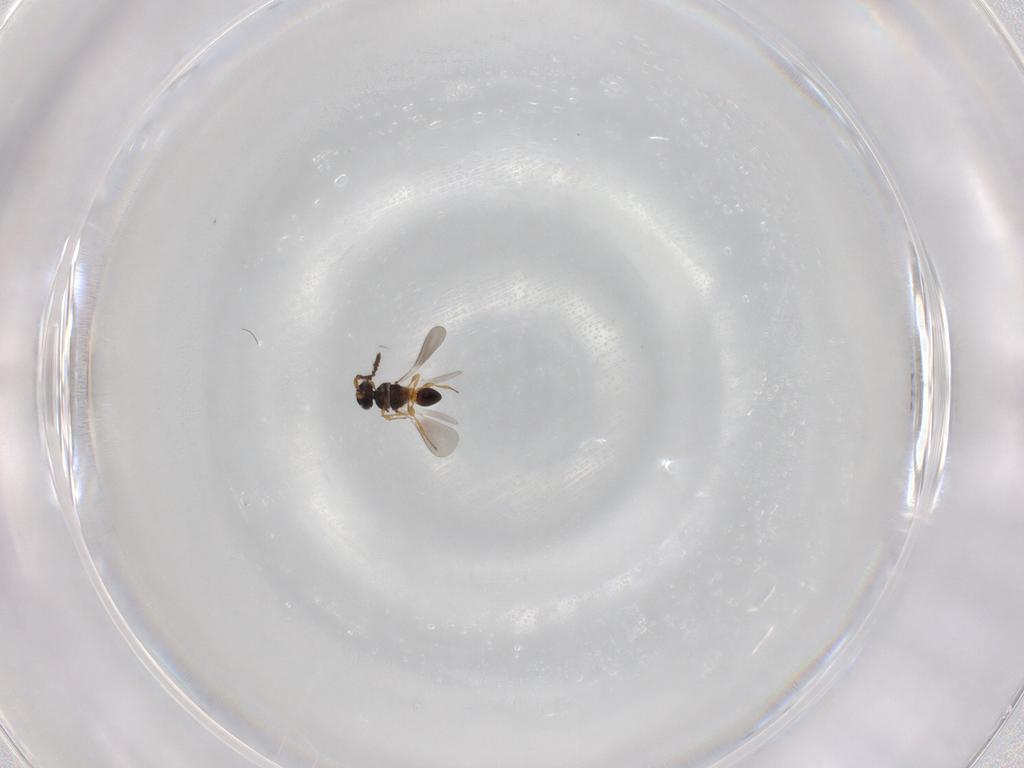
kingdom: Animalia
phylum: Arthropoda
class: Insecta
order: Hymenoptera
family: Platygastridae
